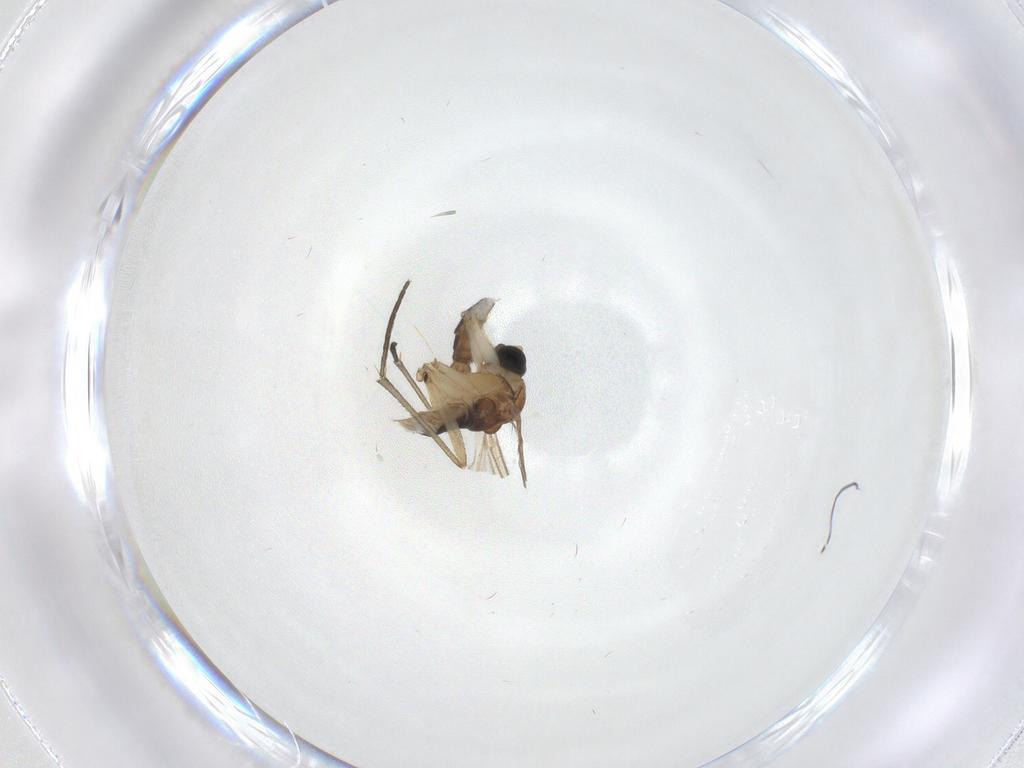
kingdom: Animalia
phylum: Arthropoda
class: Insecta
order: Diptera
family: Sciaridae
